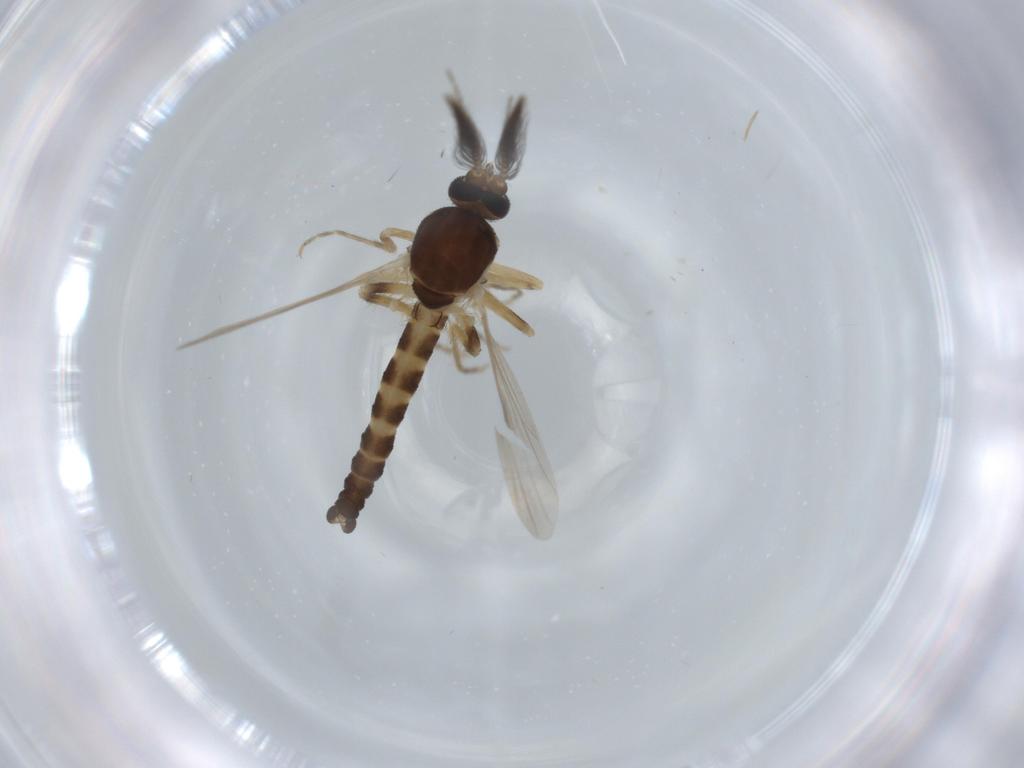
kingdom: Animalia
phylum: Arthropoda
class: Insecta
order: Diptera
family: Ceratopogonidae
